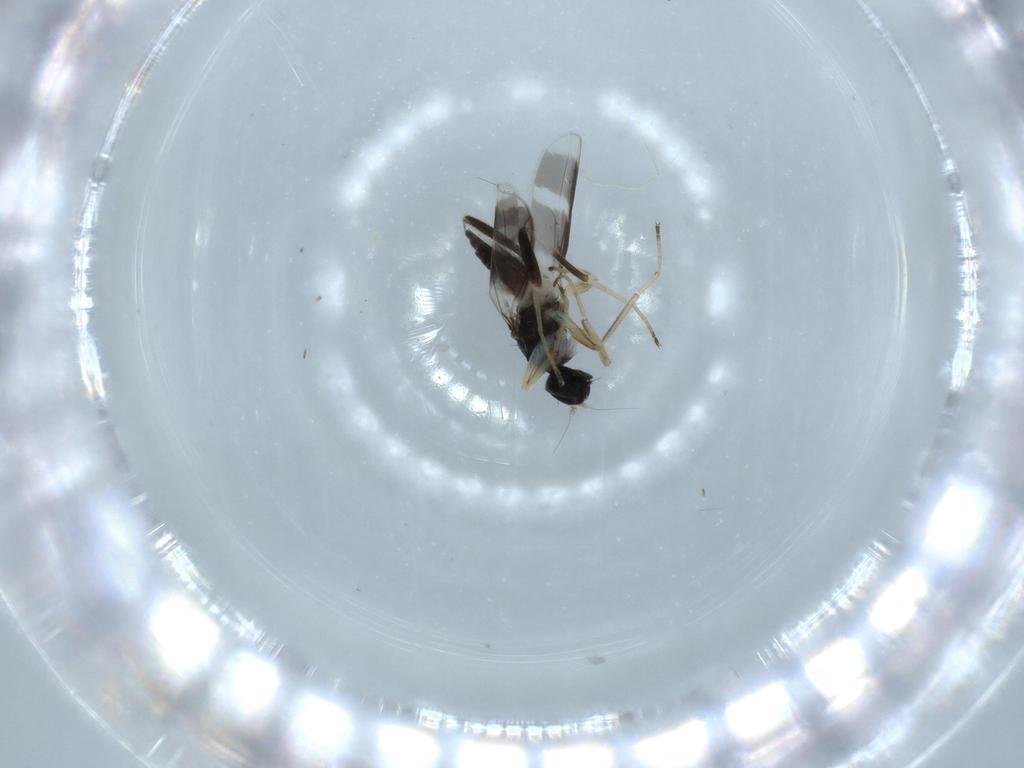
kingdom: Animalia
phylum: Arthropoda
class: Insecta
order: Diptera
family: Hybotidae
